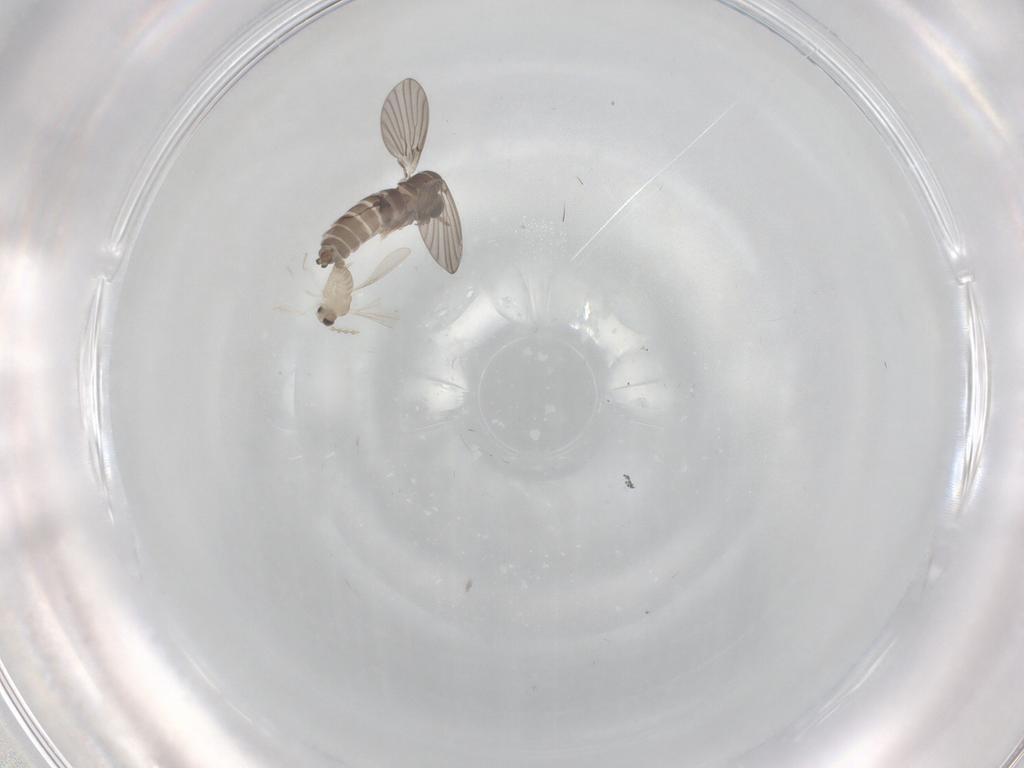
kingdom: Animalia
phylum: Arthropoda
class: Insecta
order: Diptera
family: Cecidomyiidae
